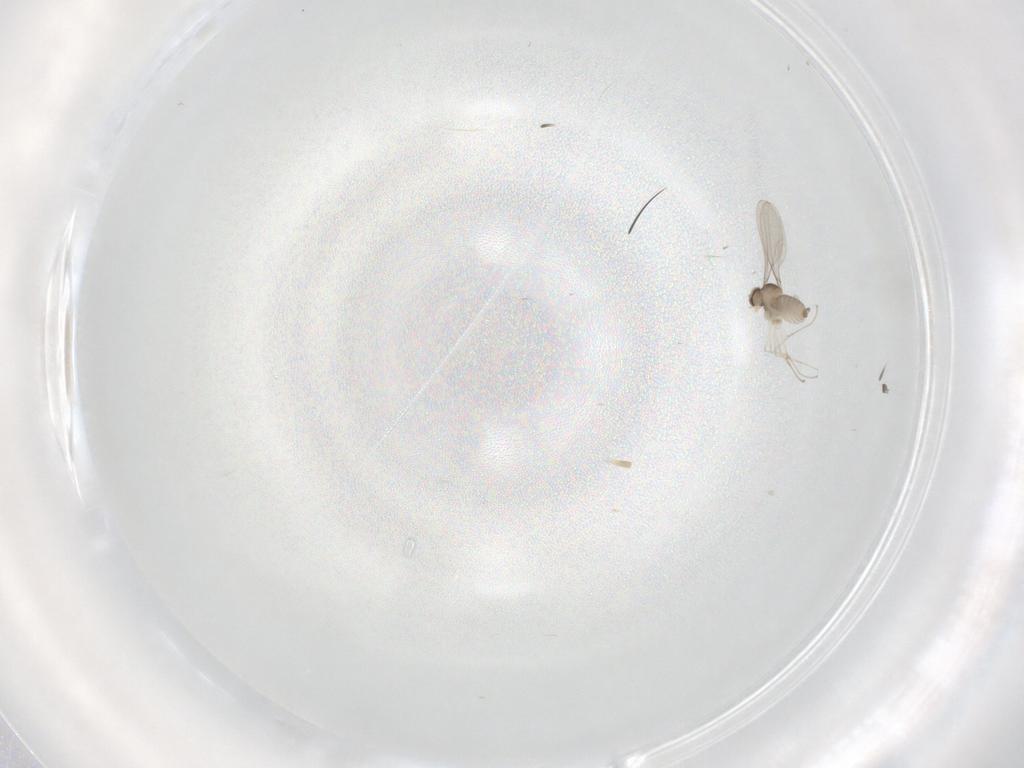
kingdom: Animalia
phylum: Arthropoda
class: Insecta
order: Diptera
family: Cecidomyiidae
